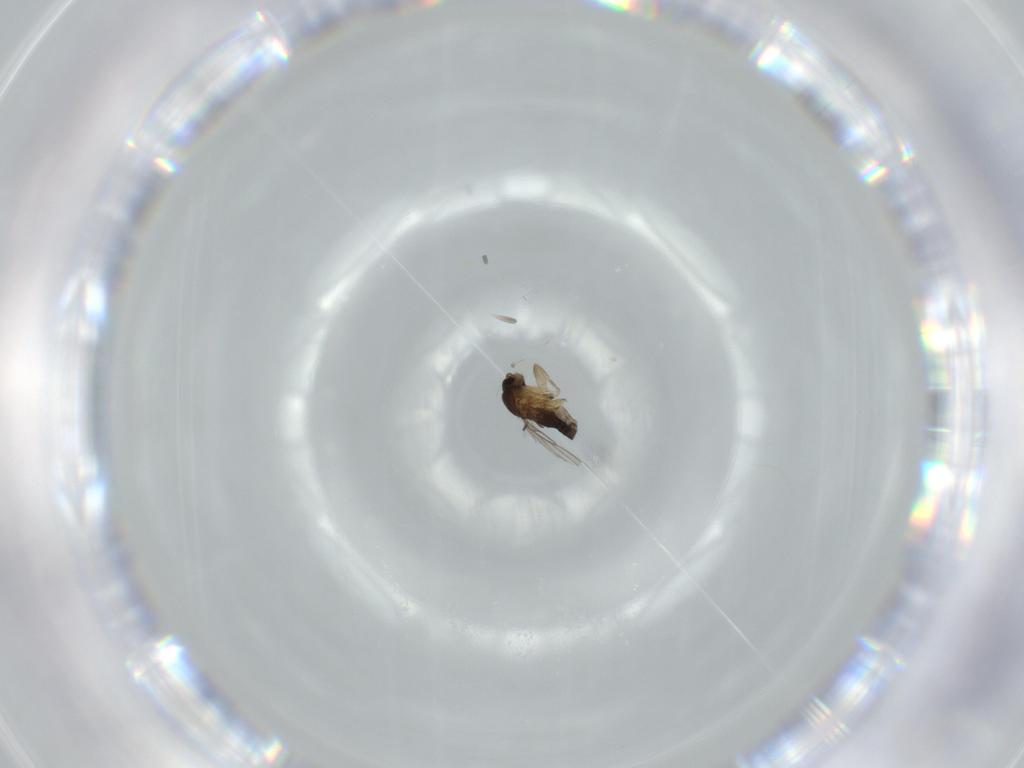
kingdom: Animalia
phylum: Arthropoda
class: Insecta
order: Diptera
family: Phoridae
